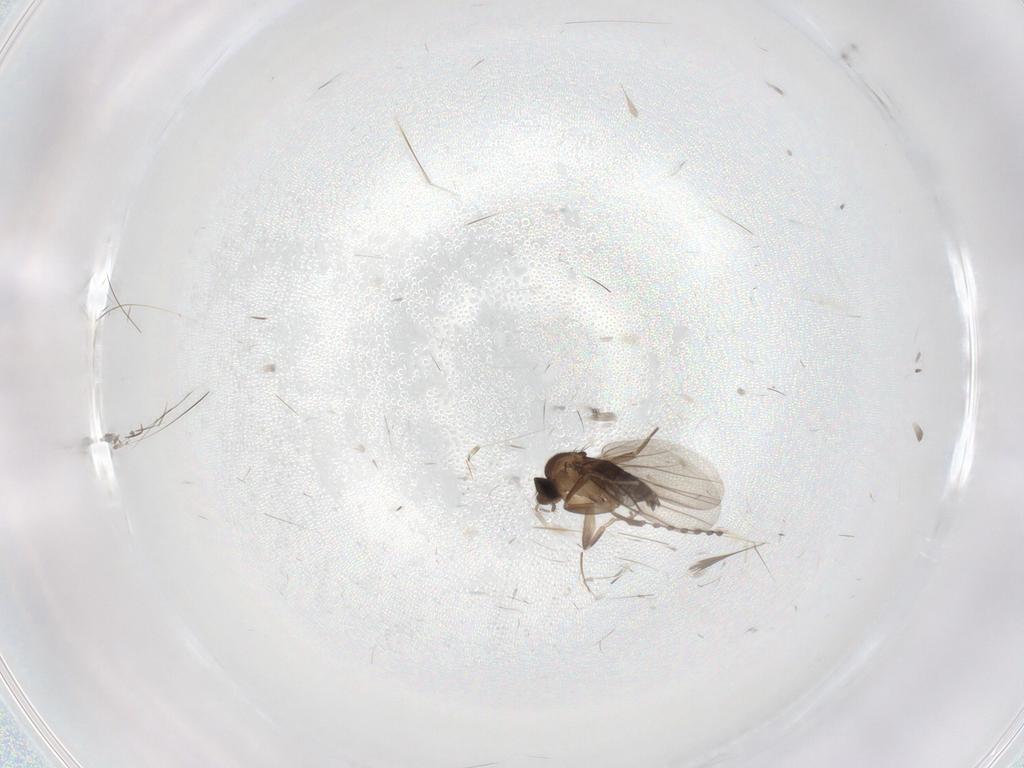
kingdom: Animalia
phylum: Arthropoda
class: Insecta
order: Diptera
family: Cecidomyiidae
